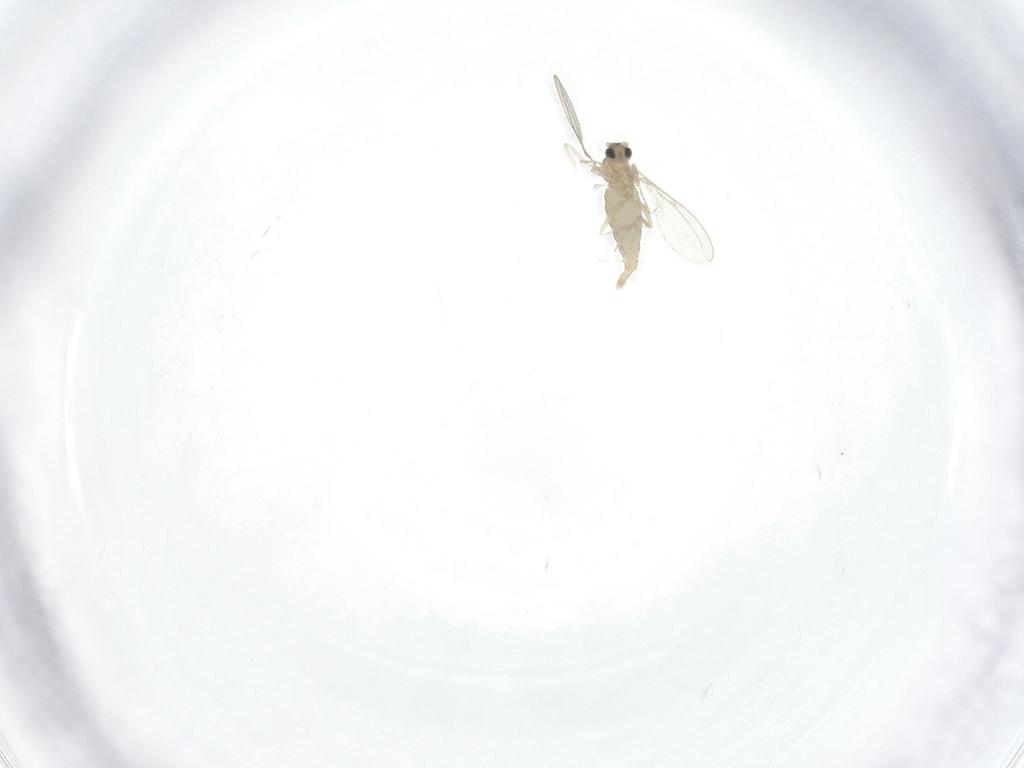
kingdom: Animalia
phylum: Arthropoda
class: Insecta
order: Diptera
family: Cecidomyiidae
